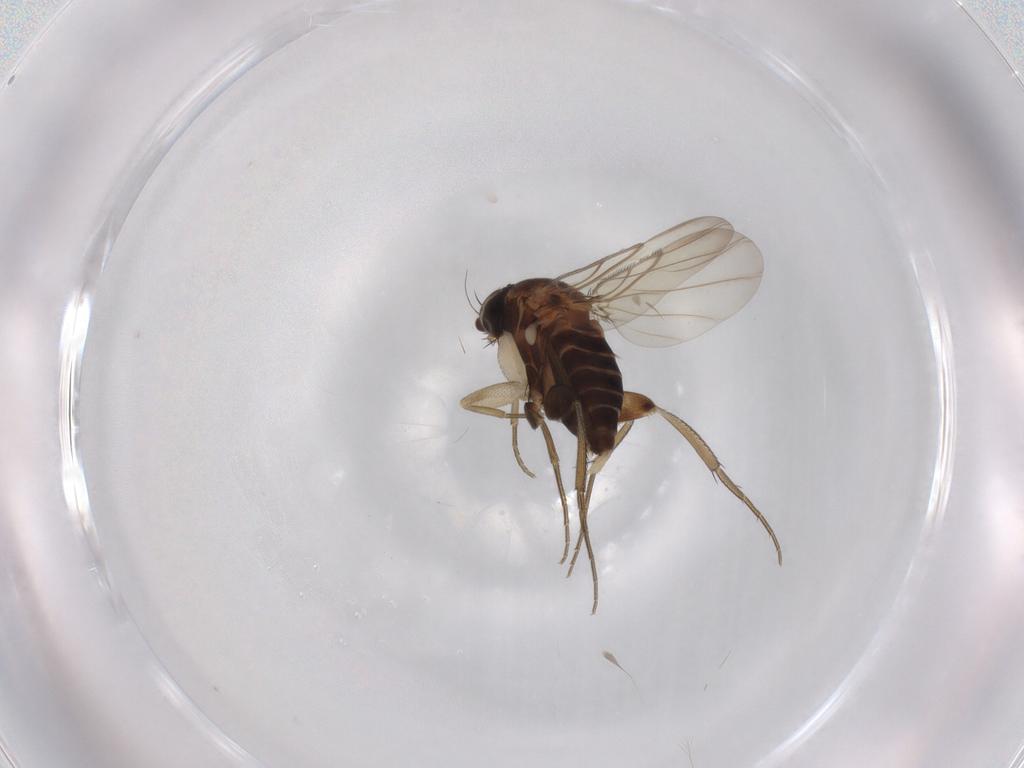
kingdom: Animalia
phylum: Arthropoda
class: Insecta
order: Diptera
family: Phoridae
